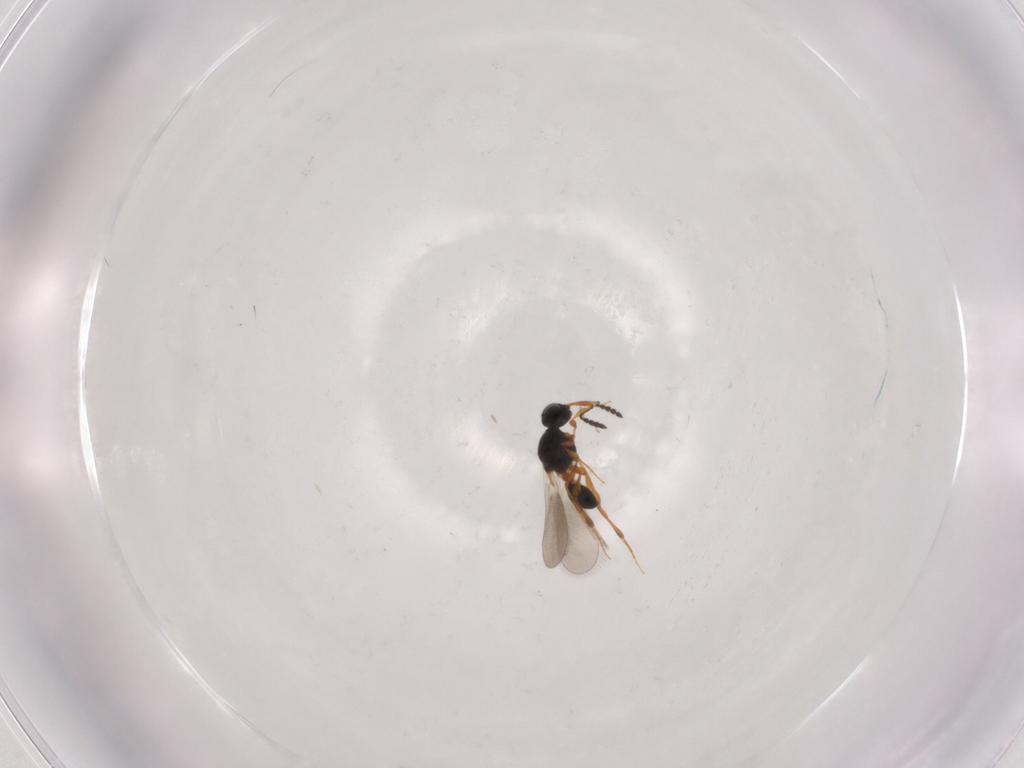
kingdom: Animalia
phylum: Arthropoda
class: Insecta
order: Hymenoptera
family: Platygastridae
